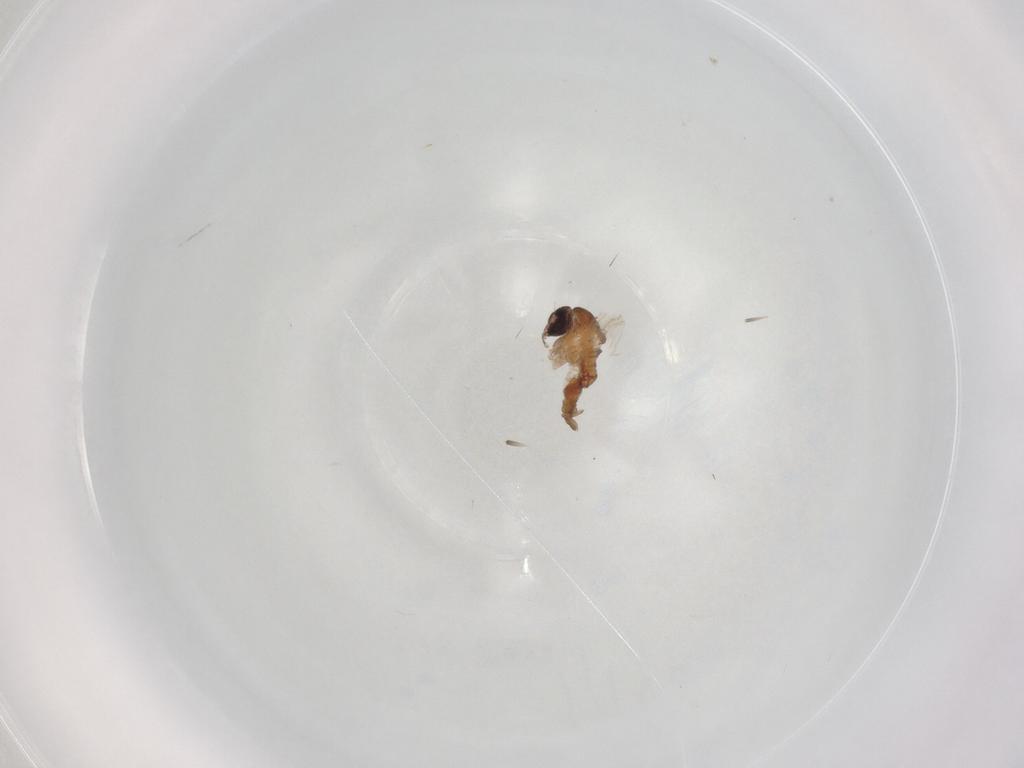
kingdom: Animalia
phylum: Arthropoda
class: Insecta
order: Diptera
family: Psychodidae
